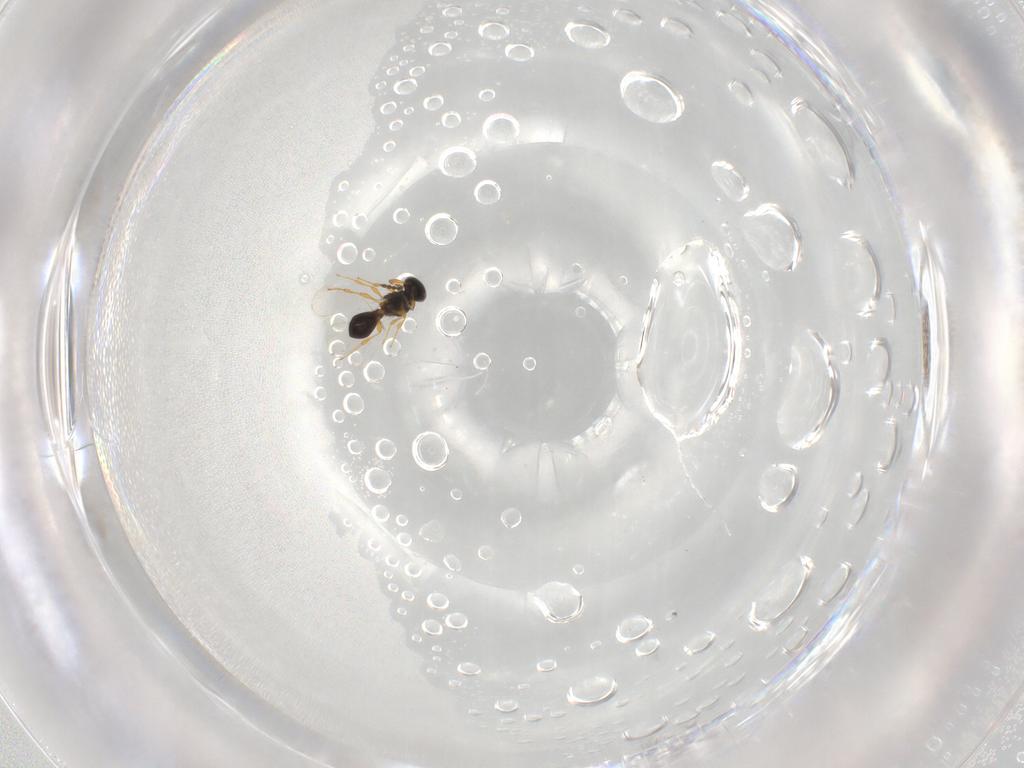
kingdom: Animalia
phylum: Arthropoda
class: Insecta
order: Hymenoptera
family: Platygastridae
